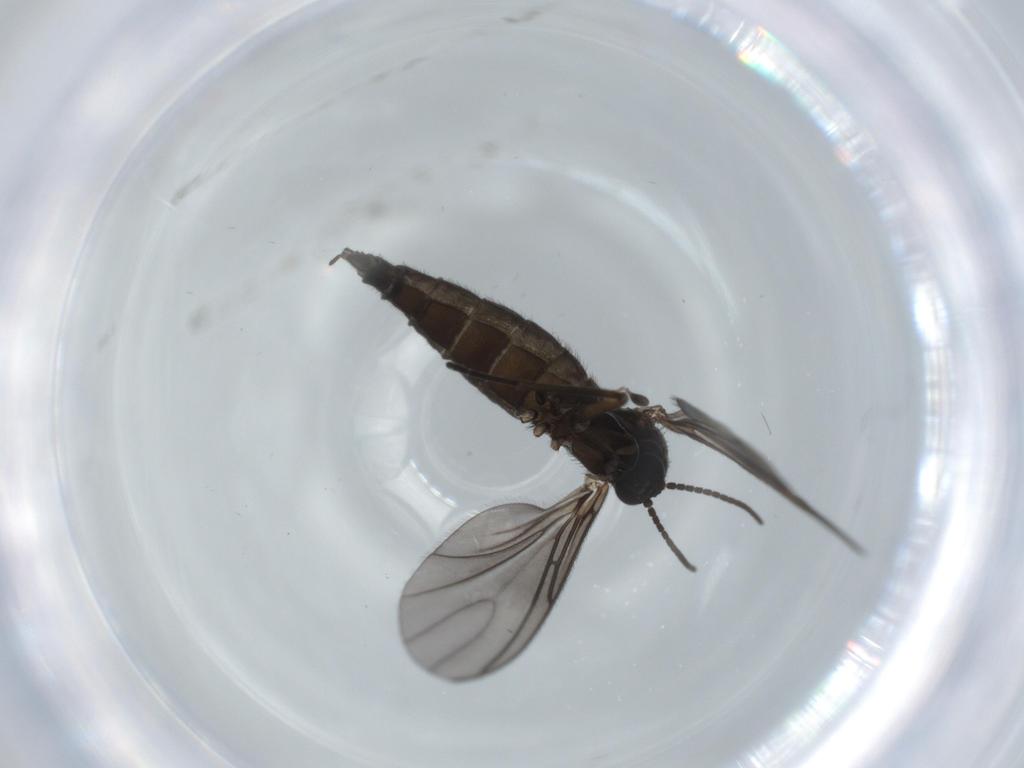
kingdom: Animalia
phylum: Arthropoda
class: Insecta
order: Diptera
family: Sciaridae
